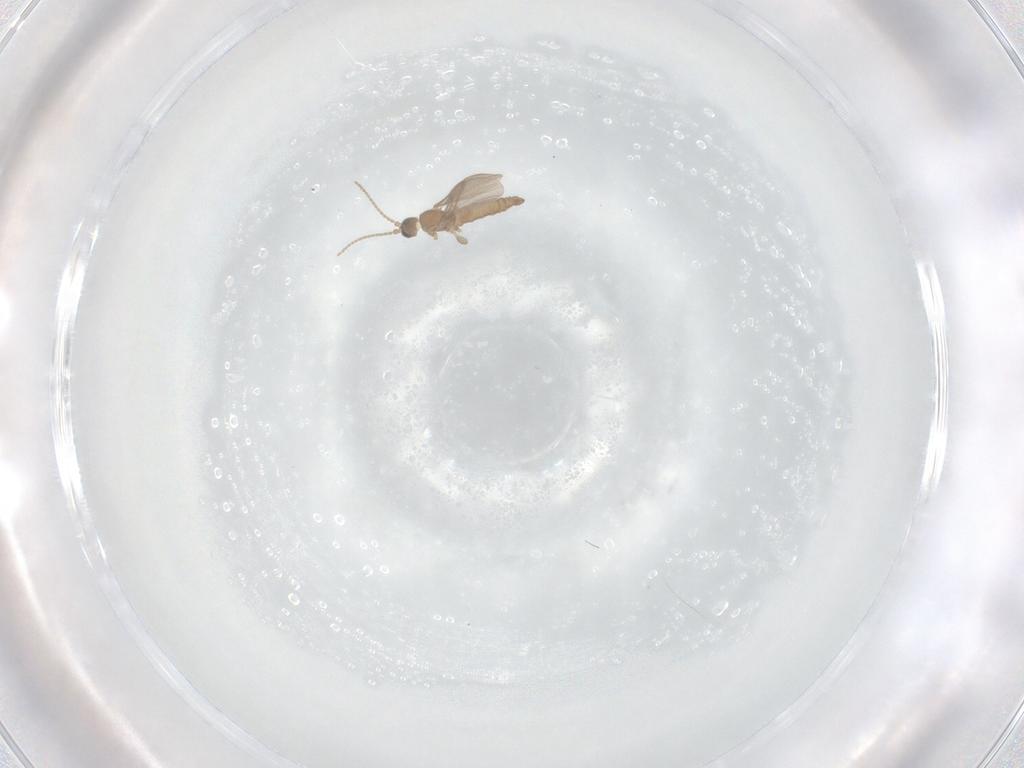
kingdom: Animalia
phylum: Arthropoda
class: Insecta
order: Diptera
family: Sciaridae
